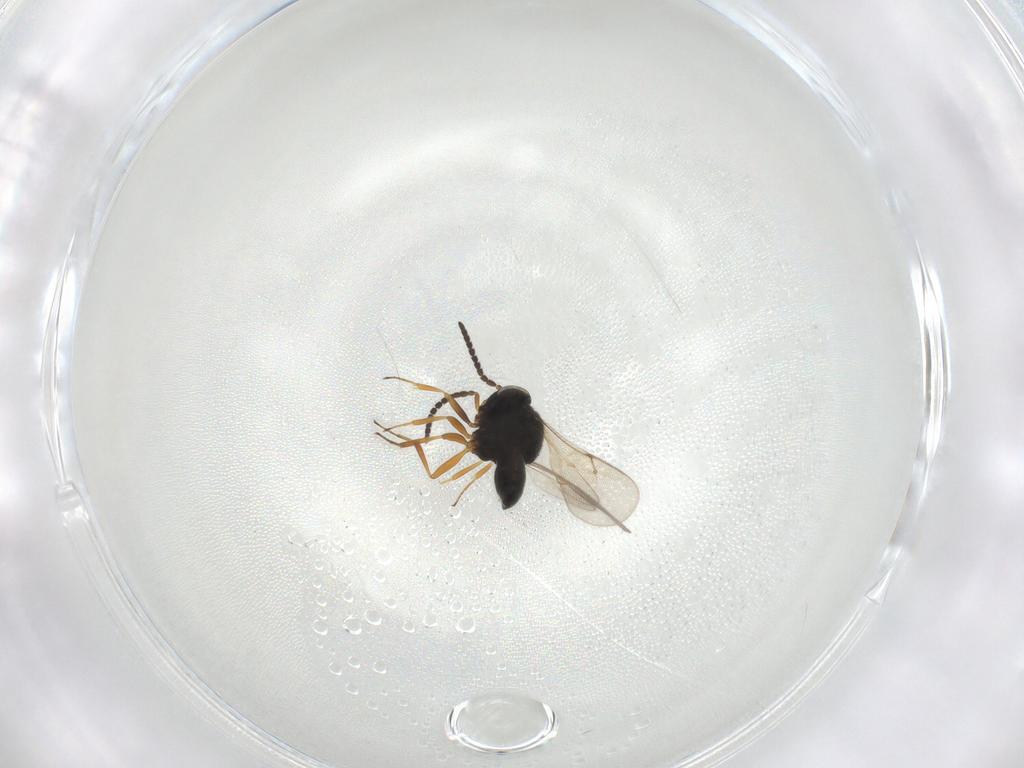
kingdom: Animalia
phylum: Arthropoda
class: Insecta
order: Hymenoptera
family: Scelionidae
